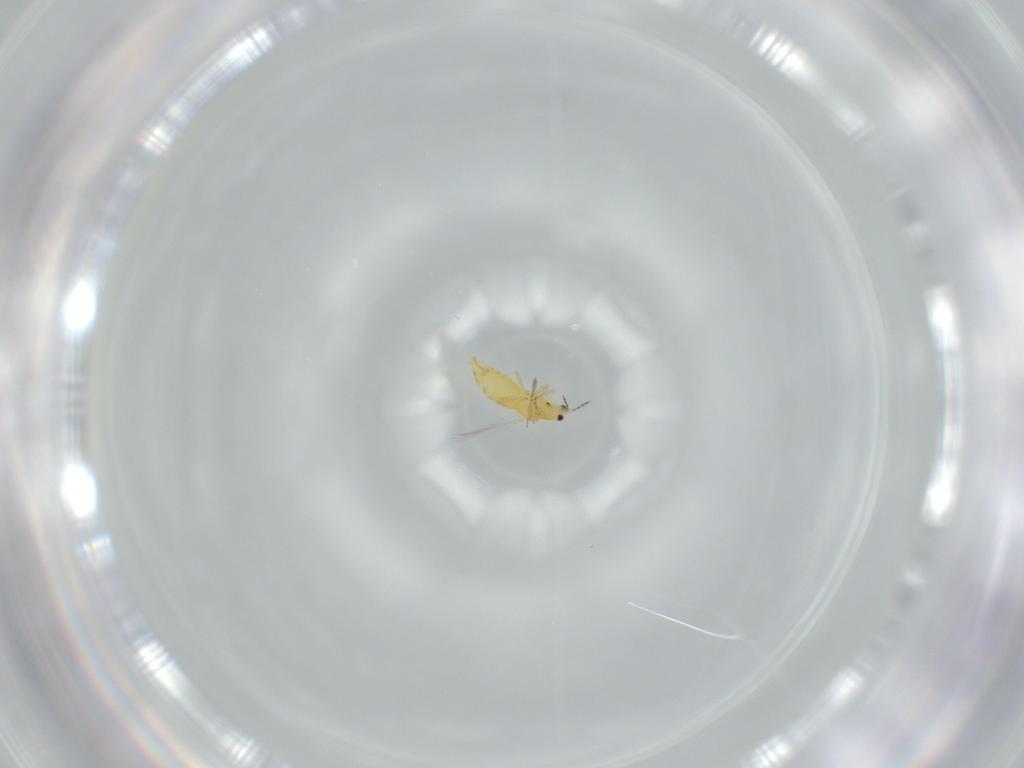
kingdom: Animalia
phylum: Arthropoda
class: Insecta
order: Thysanoptera
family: Thripidae
